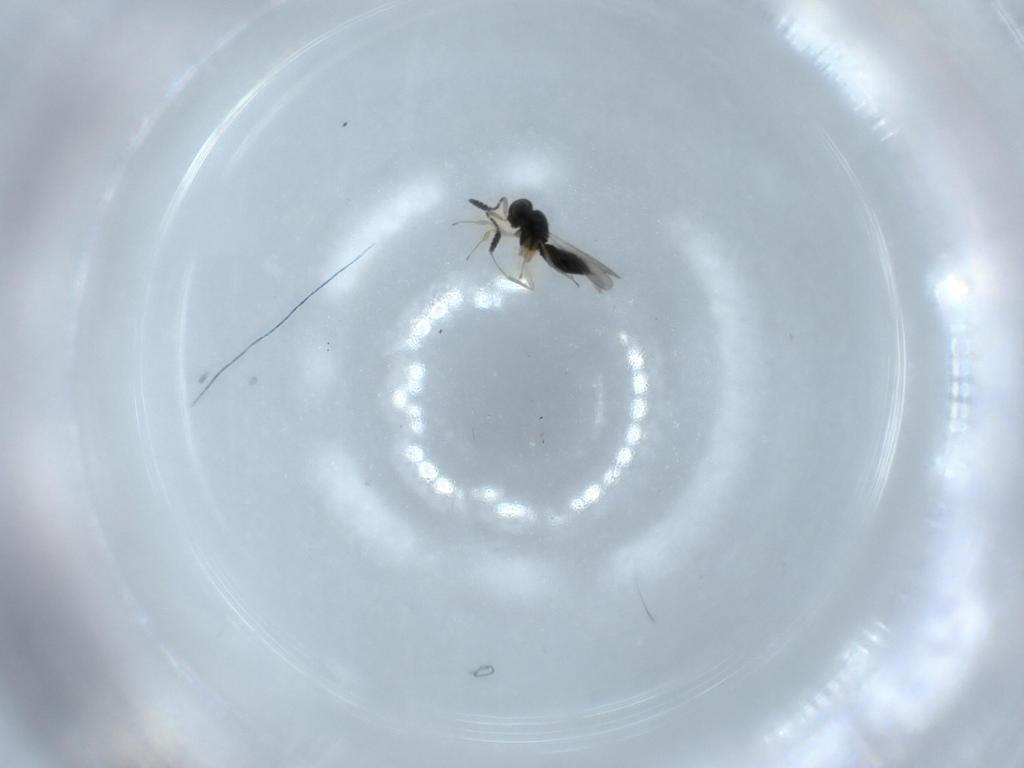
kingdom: Animalia
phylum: Arthropoda
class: Insecta
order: Hymenoptera
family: Scelionidae
